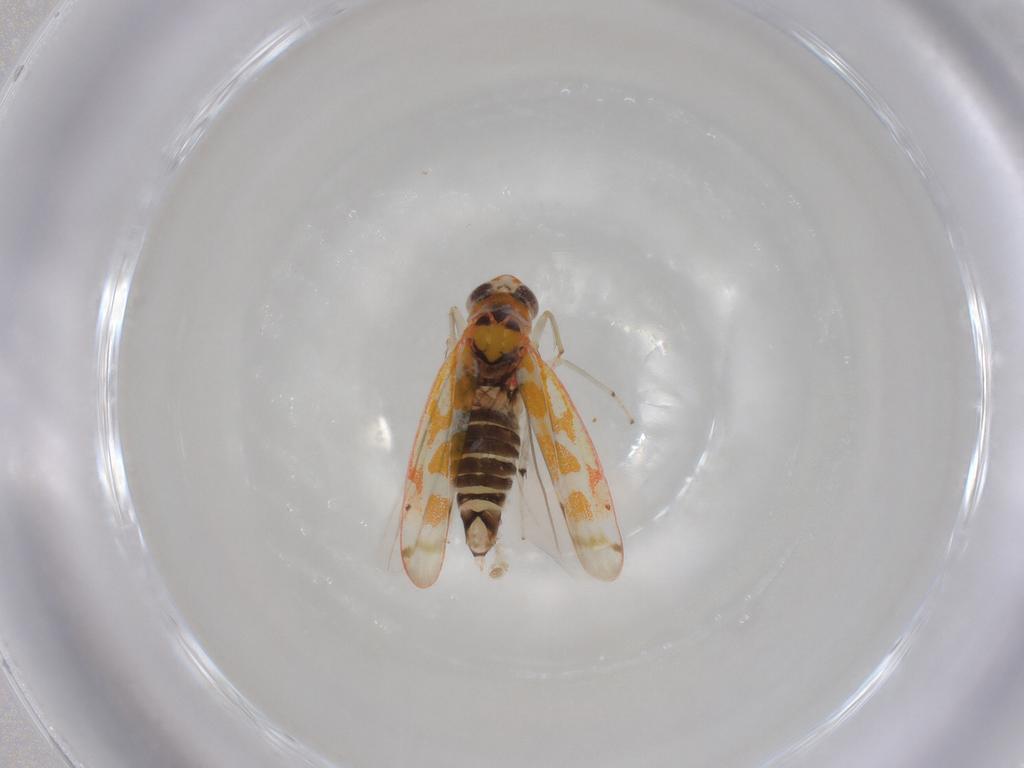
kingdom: Animalia
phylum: Arthropoda
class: Insecta
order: Hemiptera
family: Cicadellidae
